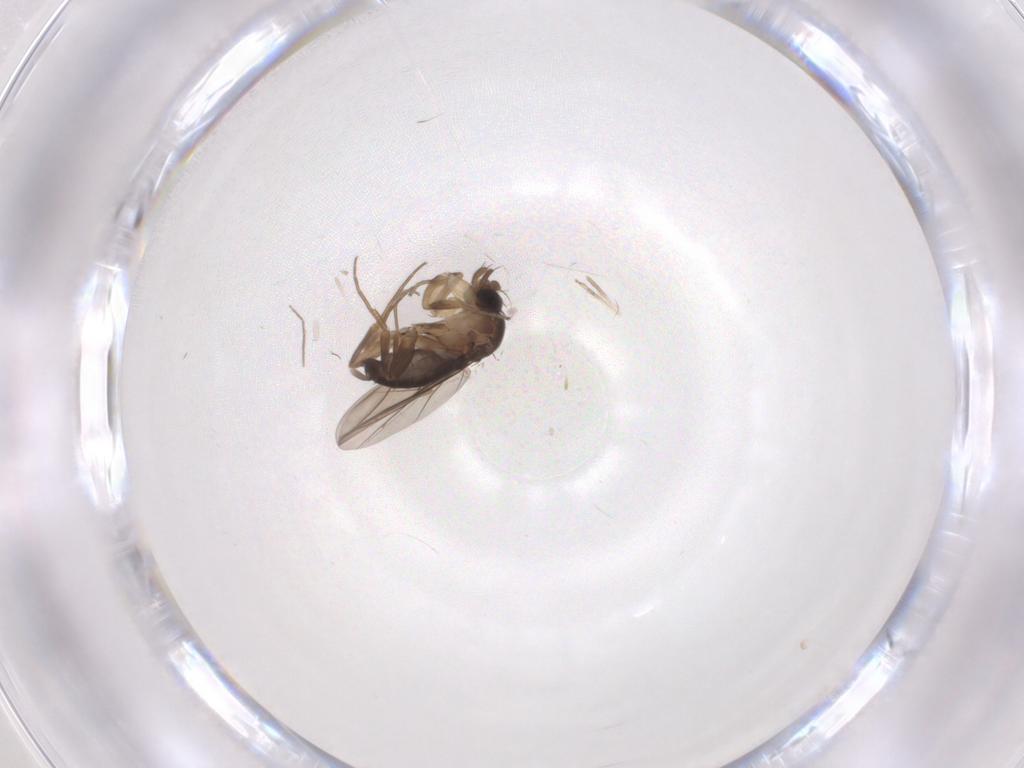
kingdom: Animalia
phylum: Arthropoda
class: Insecta
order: Diptera
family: Ceratopogonidae
